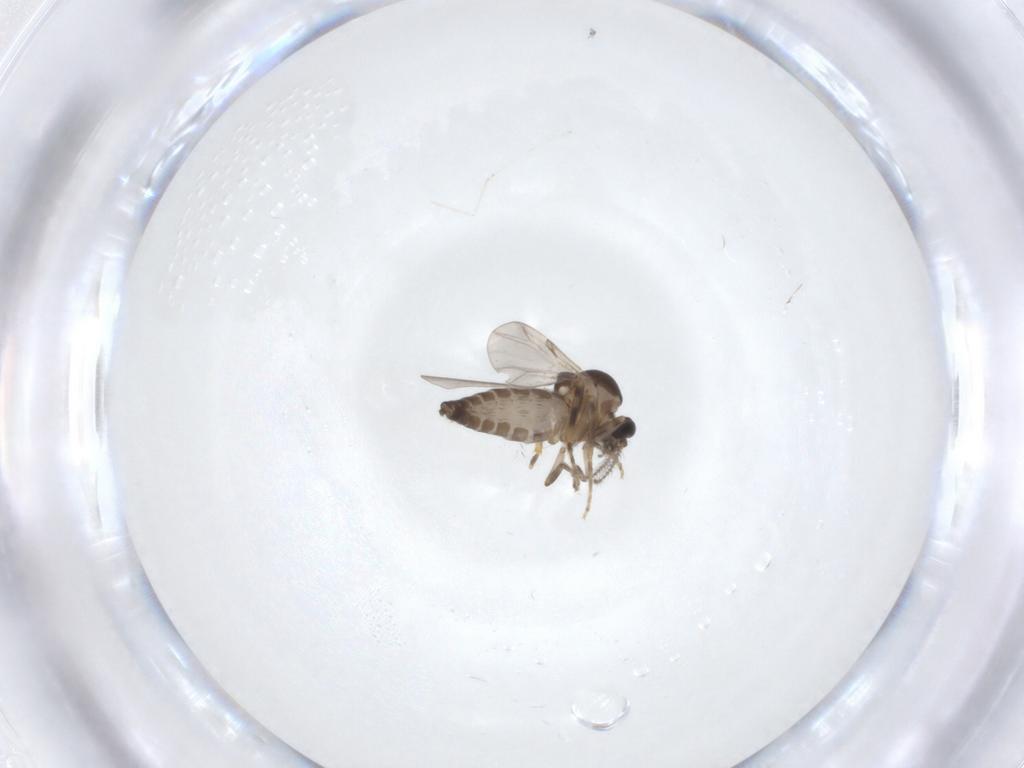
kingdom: Animalia
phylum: Arthropoda
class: Insecta
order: Diptera
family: Ceratopogonidae
